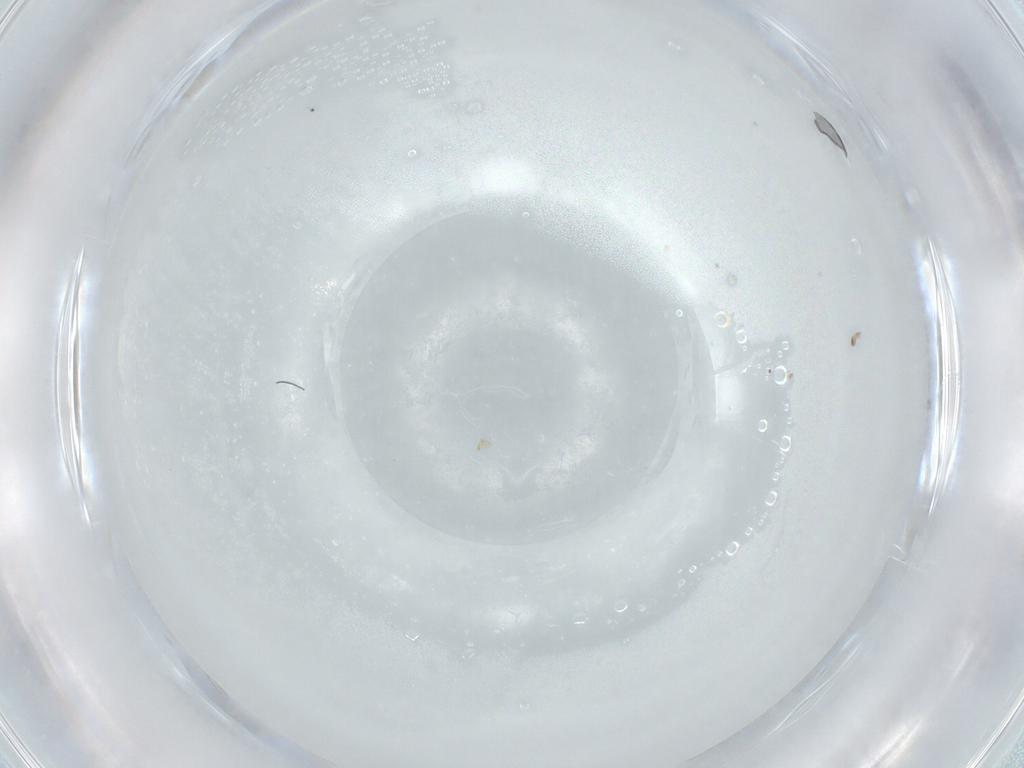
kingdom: Animalia
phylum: Arthropoda
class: Insecta
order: Diptera
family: Sciaridae
